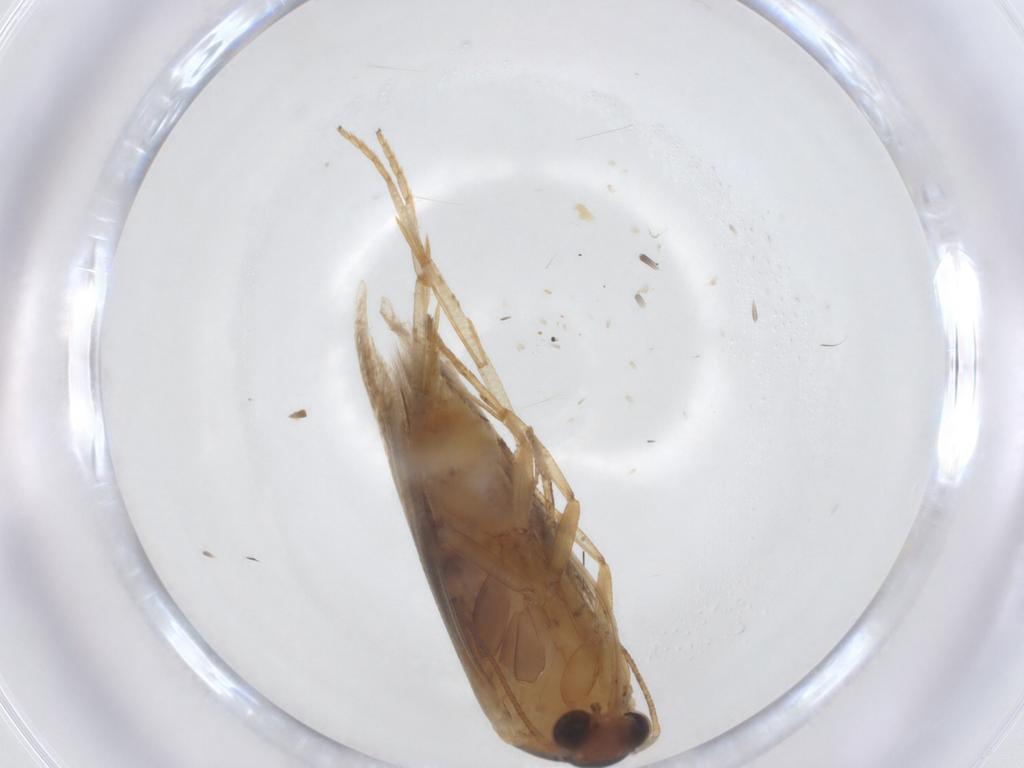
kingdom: Animalia
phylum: Arthropoda
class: Insecta
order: Lepidoptera
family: Blastobasidae
